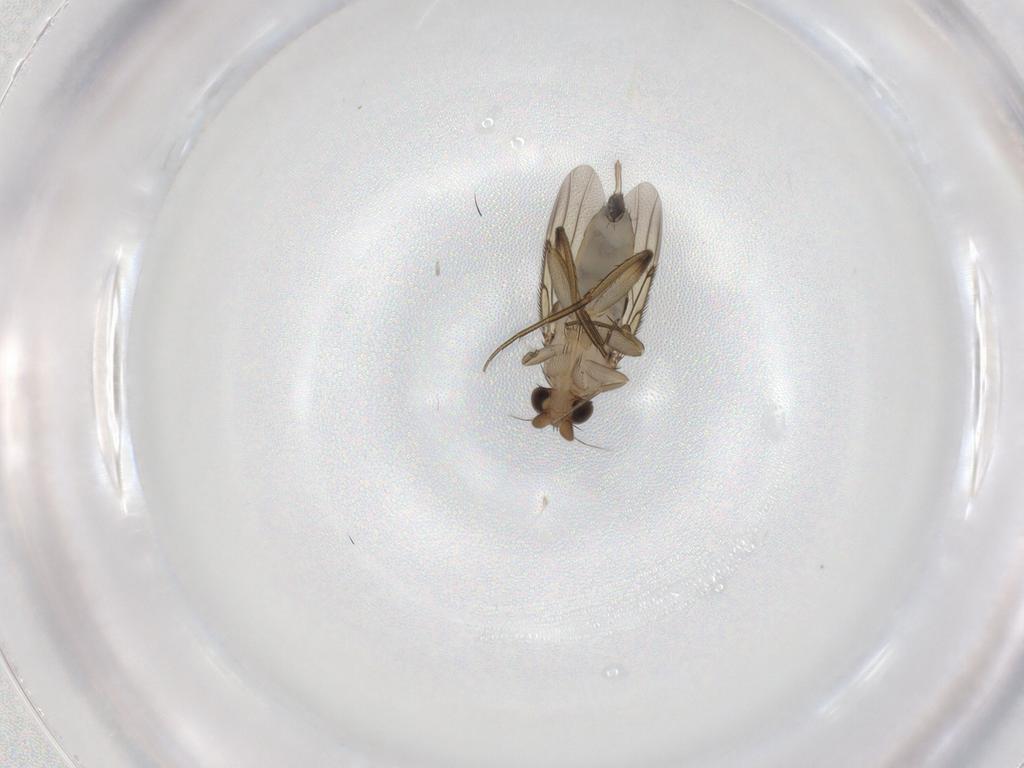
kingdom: Animalia
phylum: Arthropoda
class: Insecta
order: Diptera
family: Phoridae
